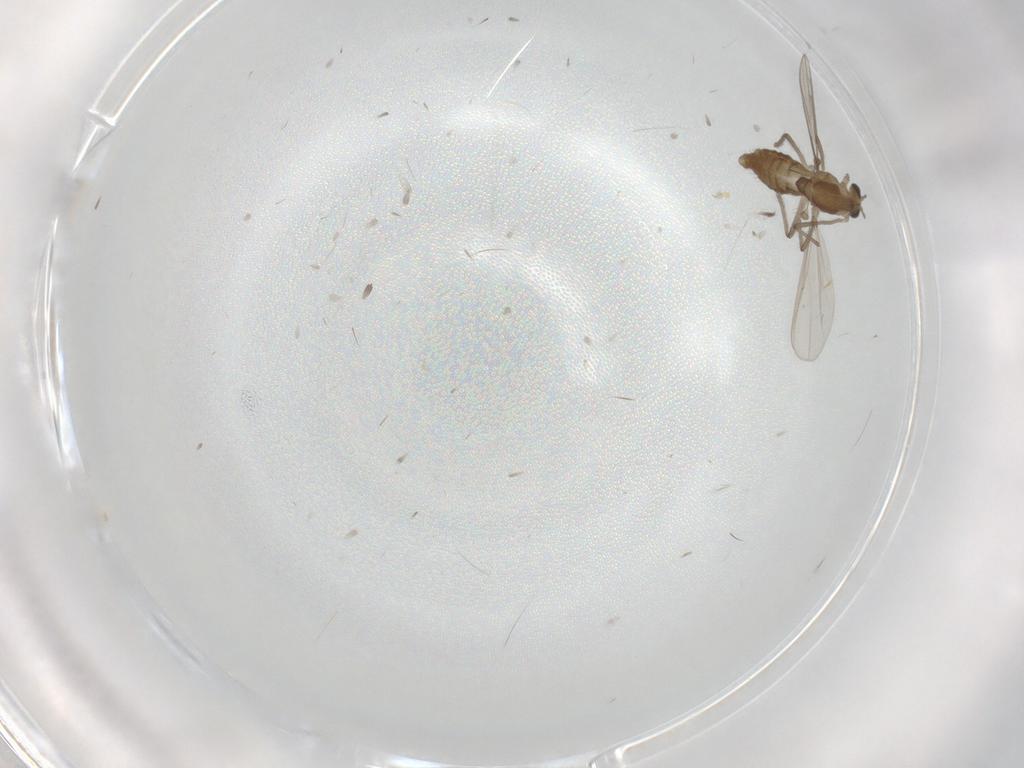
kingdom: Animalia
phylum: Arthropoda
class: Insecta
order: Diptera
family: Chironomidae
